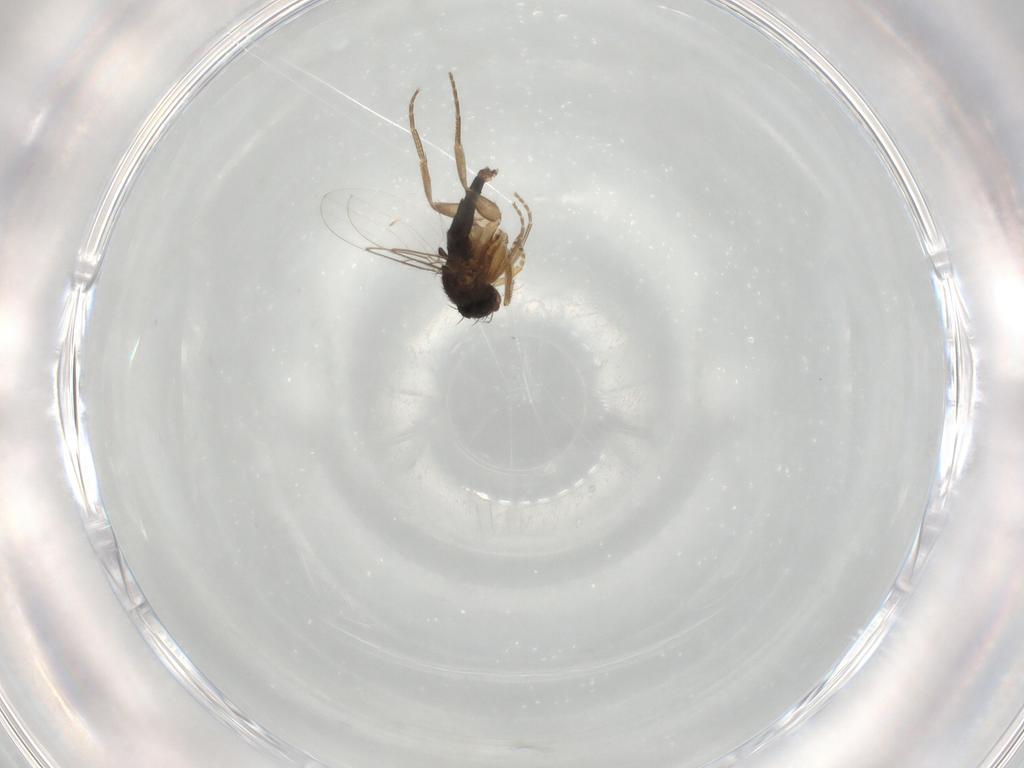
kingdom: Animalia
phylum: Arthropoda
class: Insecta
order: Diptera
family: Phoridae
